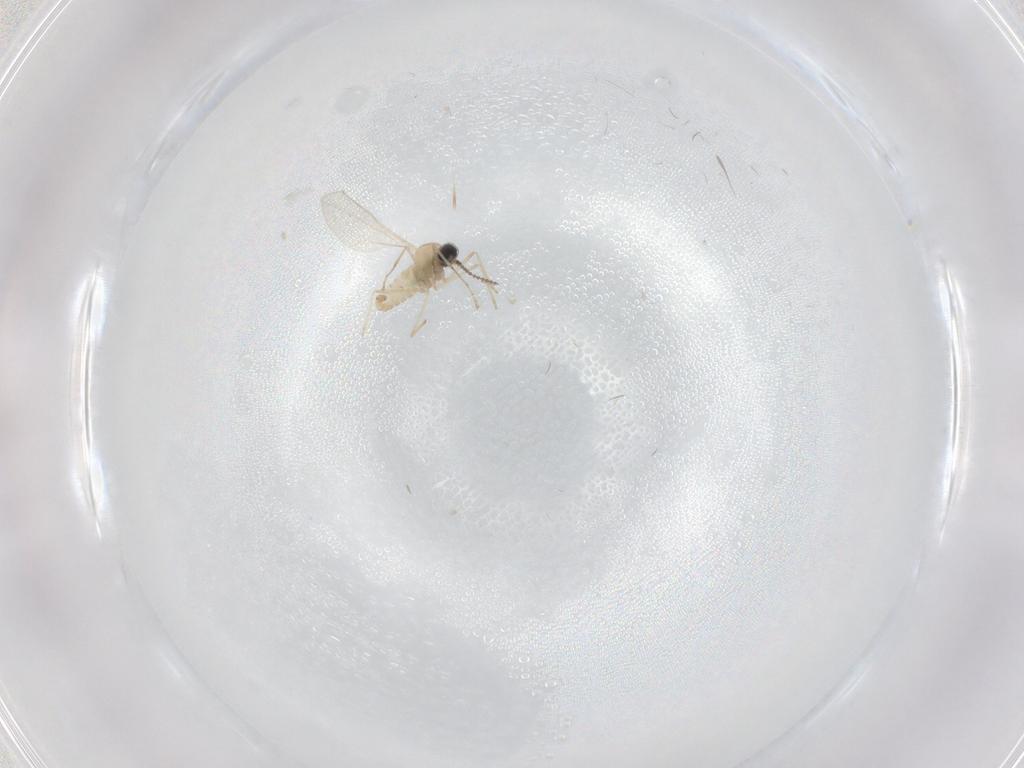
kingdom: Animalia
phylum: Arthropoda
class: Insecta
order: Diptera
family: Cecidomyiidae
